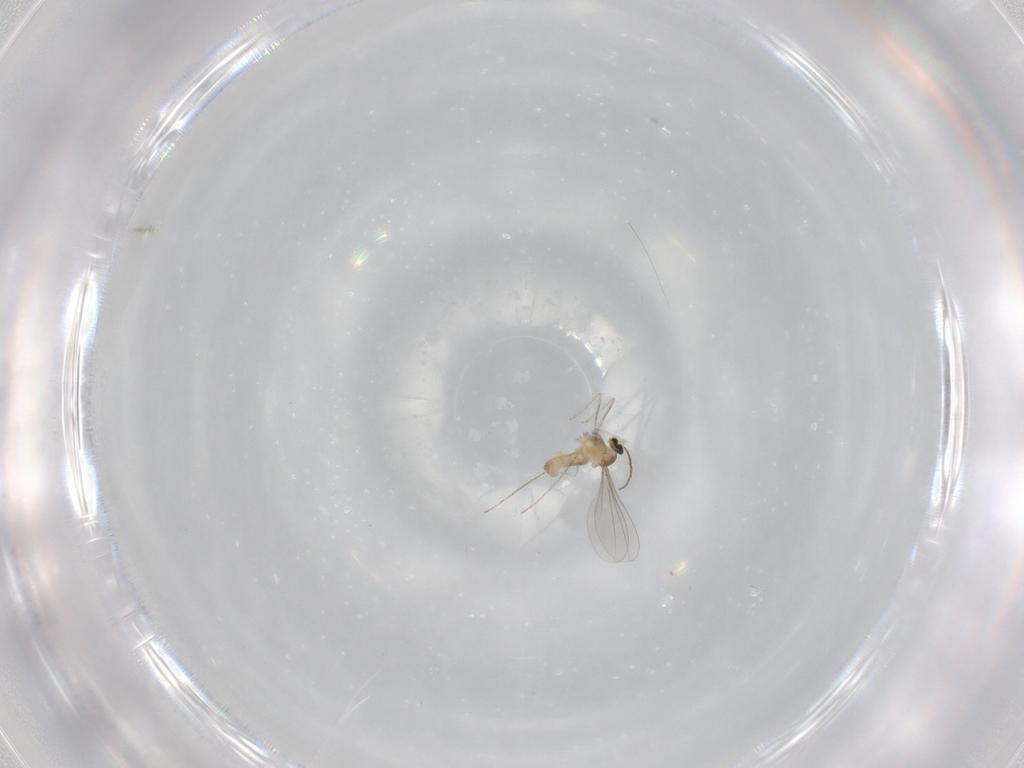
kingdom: Animalia
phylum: Arthropoda
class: Insecta
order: Diptera
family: Cecidomyiidae
